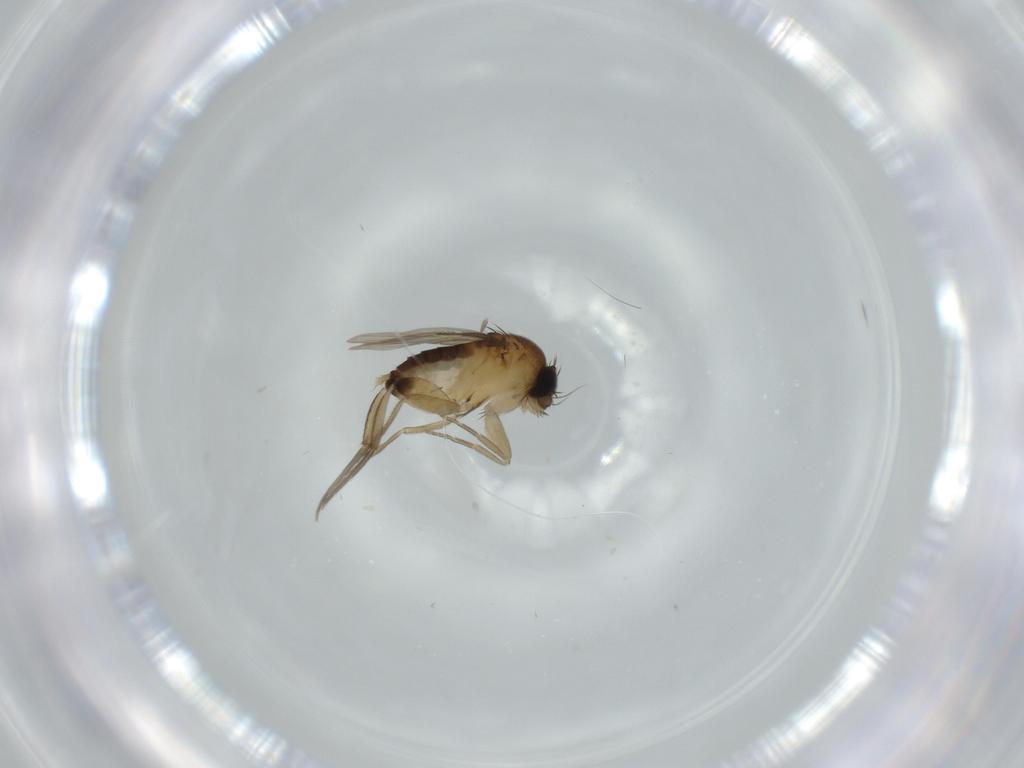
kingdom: Animalia
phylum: Arthropoda
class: Insecta
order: Diptera
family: Phoridae
